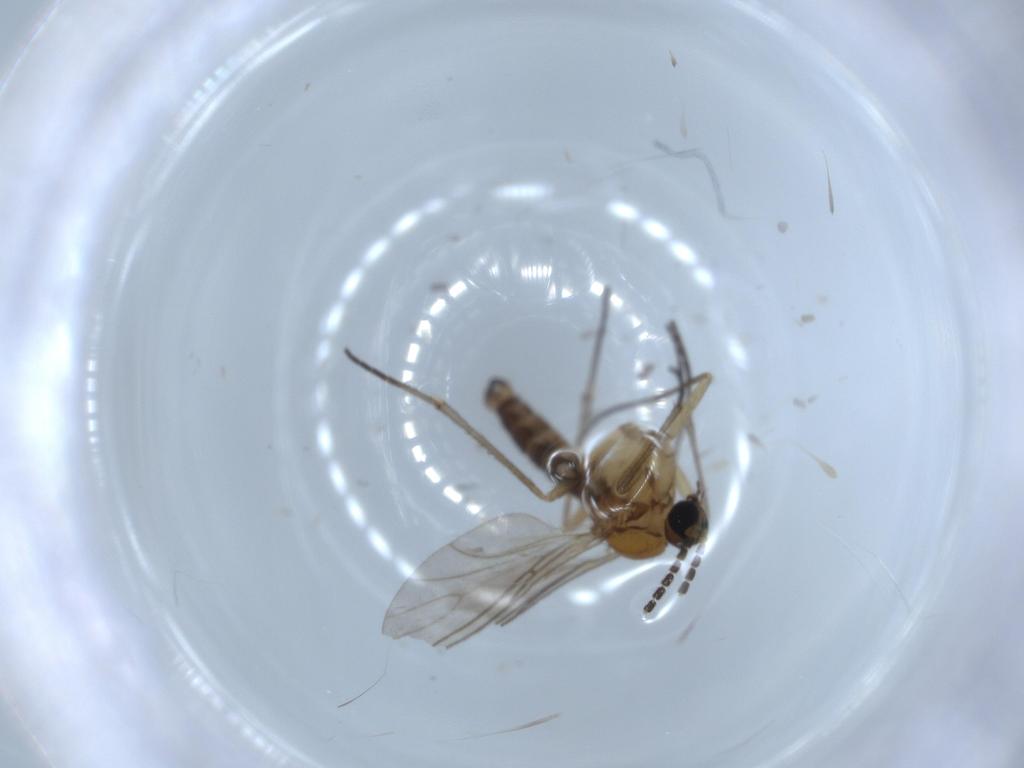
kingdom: Animalia
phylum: Arthropoda
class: Insecta
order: Diptera
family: Sciaridae
